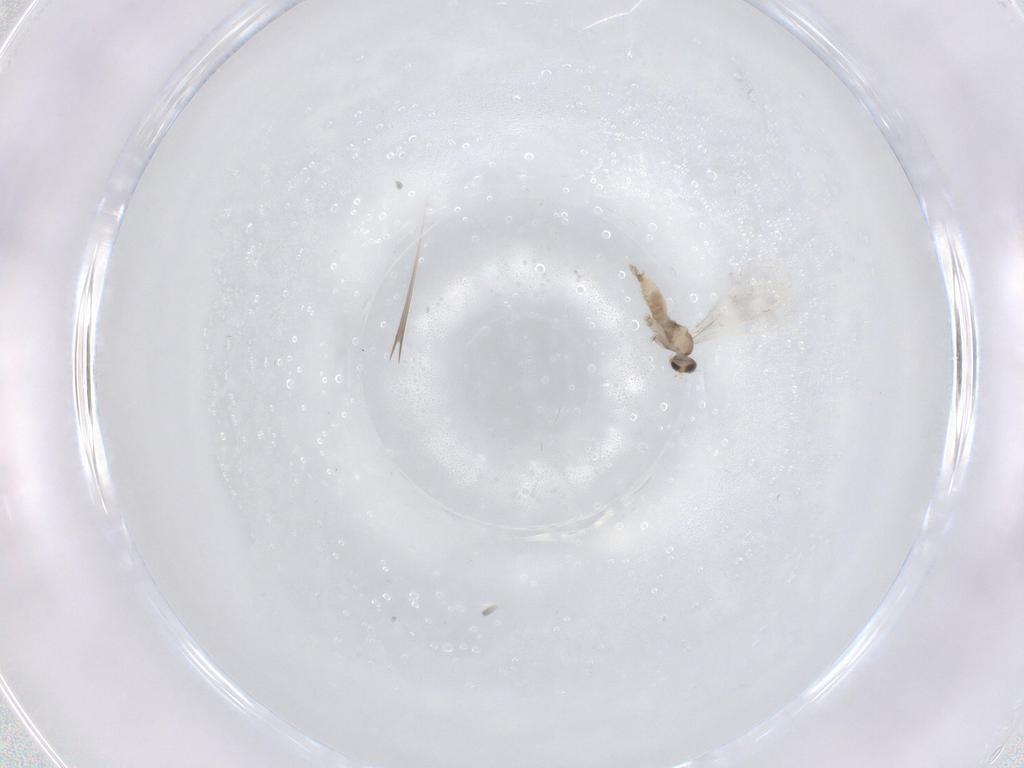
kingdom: Animalia
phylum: Arthropoda
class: Insecta
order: Diptera
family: Cecidomyiidae
